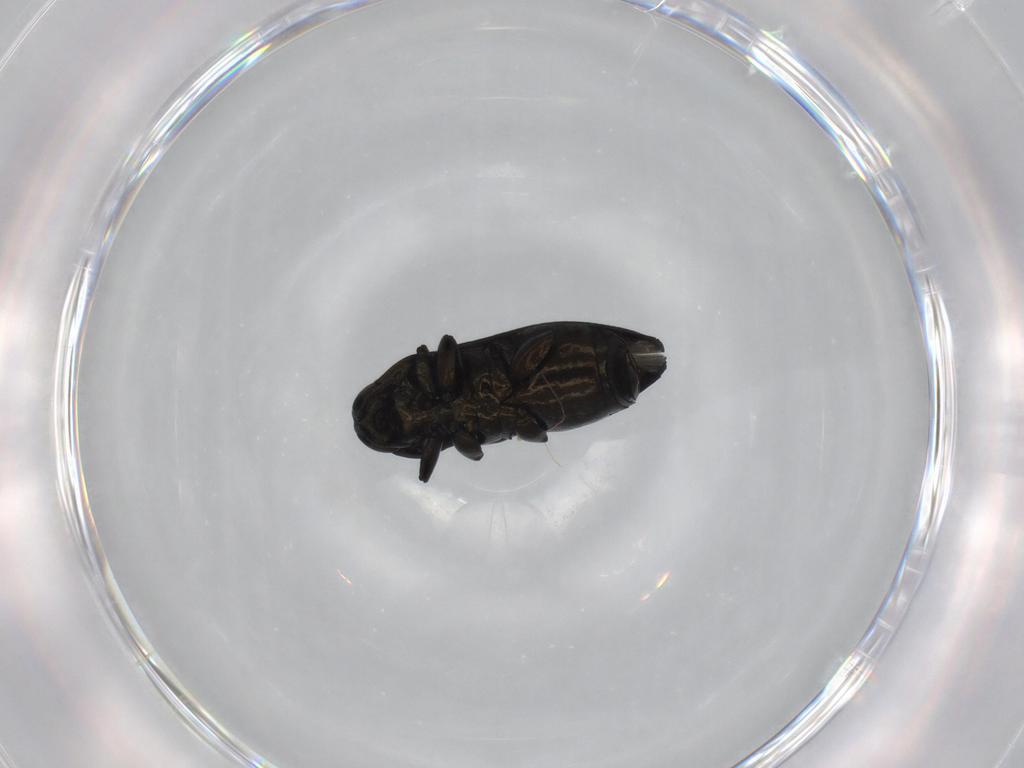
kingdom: Animalia
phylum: Arthropoda
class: Insecta
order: Coleoptera
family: Buprestidae
